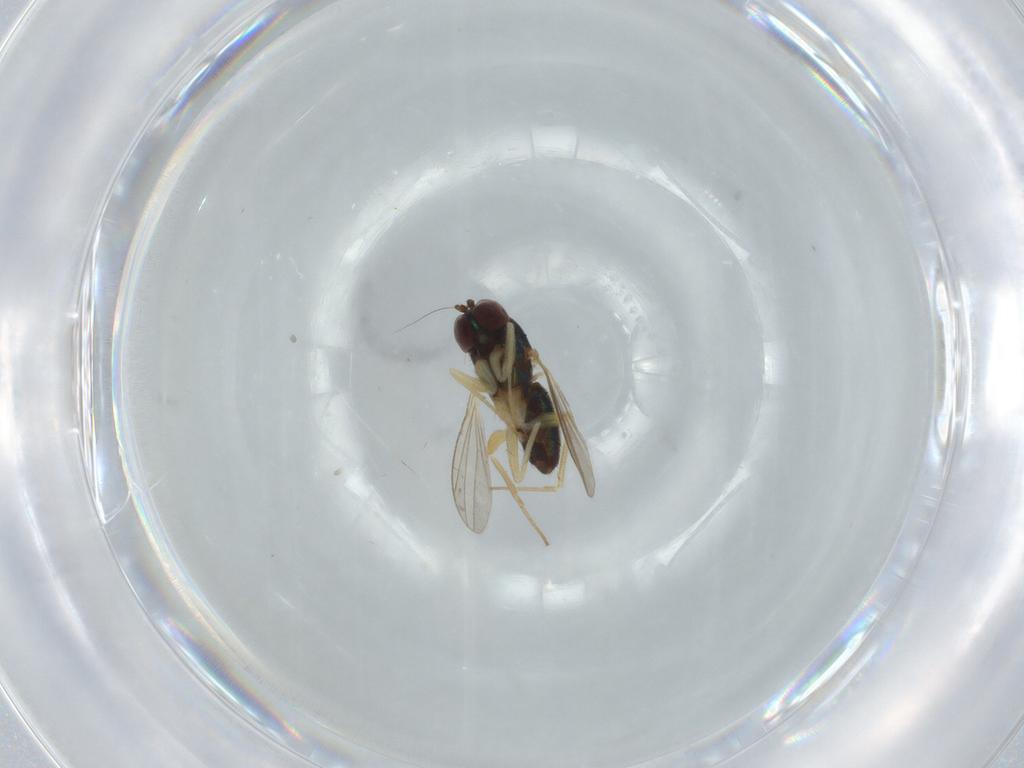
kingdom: Animalia
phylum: Arthropoda
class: Insecta
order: Diptera
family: Dolichopodidae
